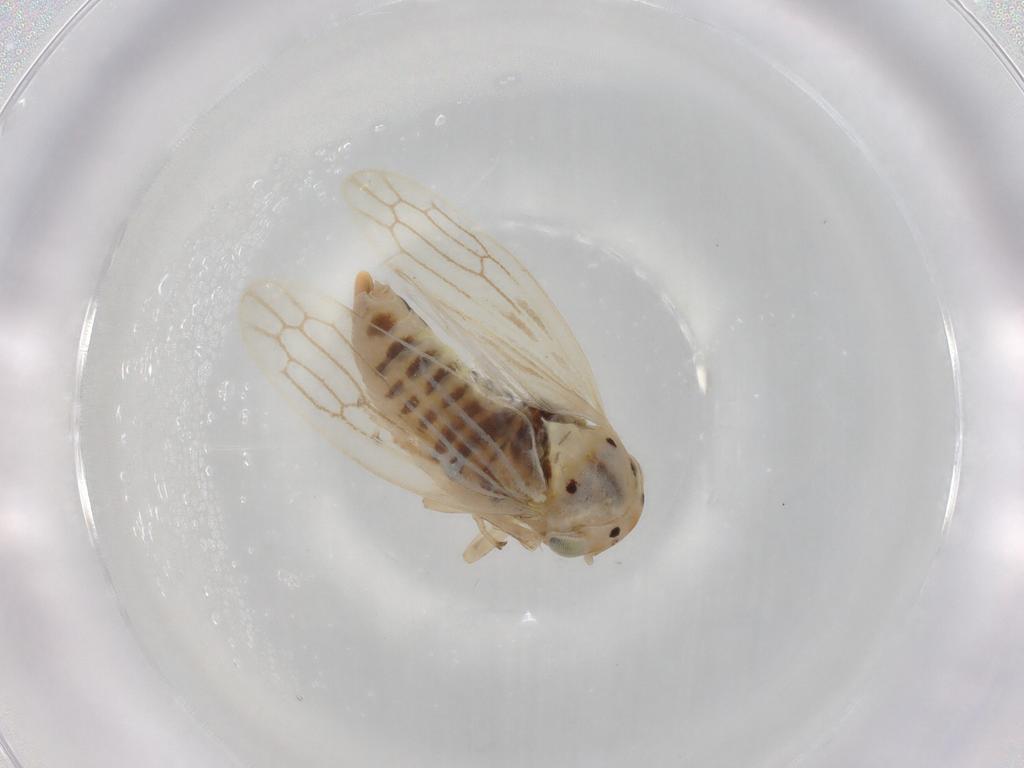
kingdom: Animalia
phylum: Arthropoda
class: Insecta
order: Hemiptera
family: Cicadellidae
